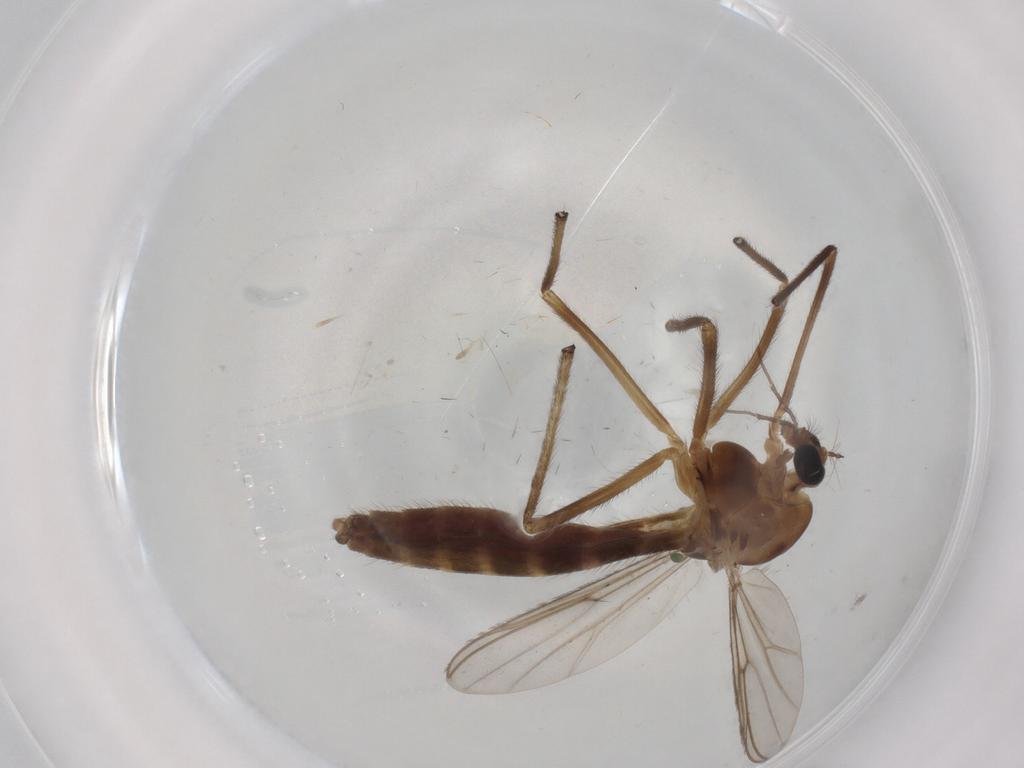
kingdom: Animalia
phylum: Arthropoda
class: Insecta
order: Diptera
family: Chironomidae
